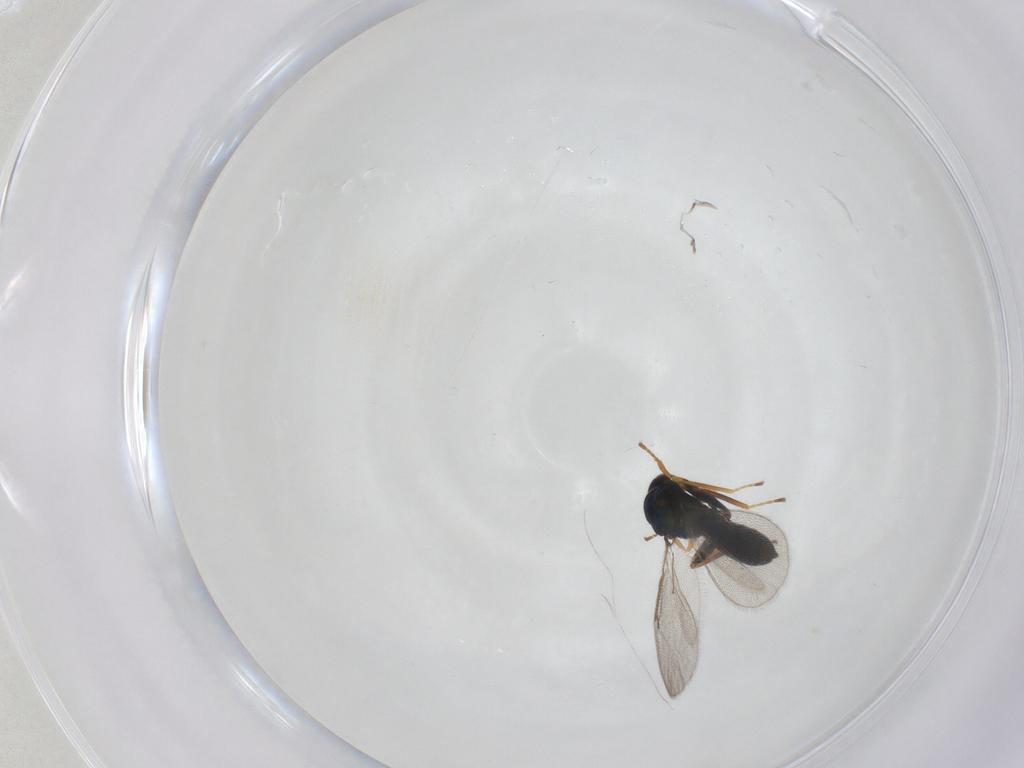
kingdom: Animalia
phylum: Arthropoda
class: Insecta
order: Hymenoptera
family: Eulophidae
